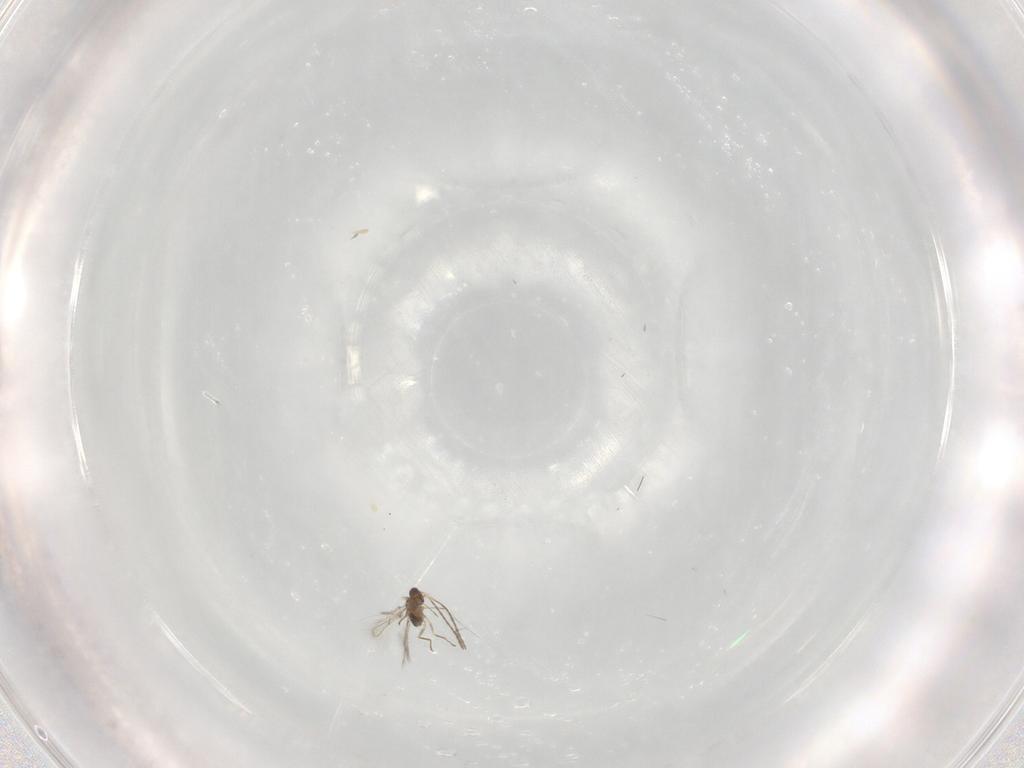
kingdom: Animalia
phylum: Arthropoda
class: Insecta
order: Hymenoptera
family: Mymaridae
